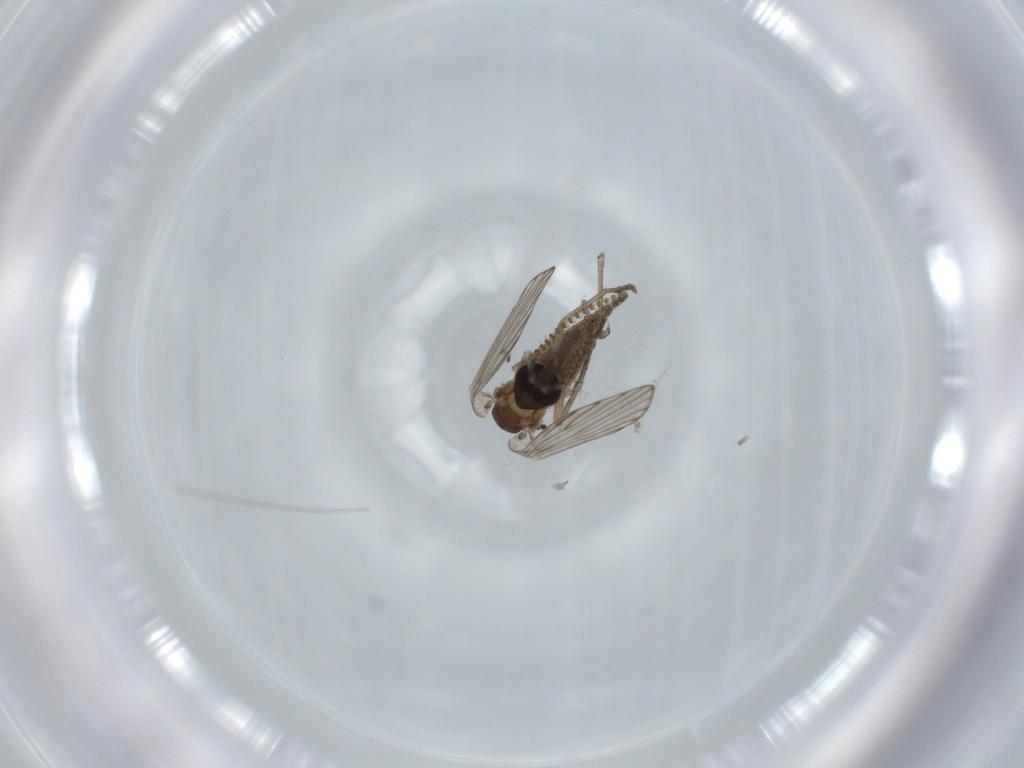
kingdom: Animalia
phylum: Arthropoda
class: Insecta
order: Diptera
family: Psychodidae
